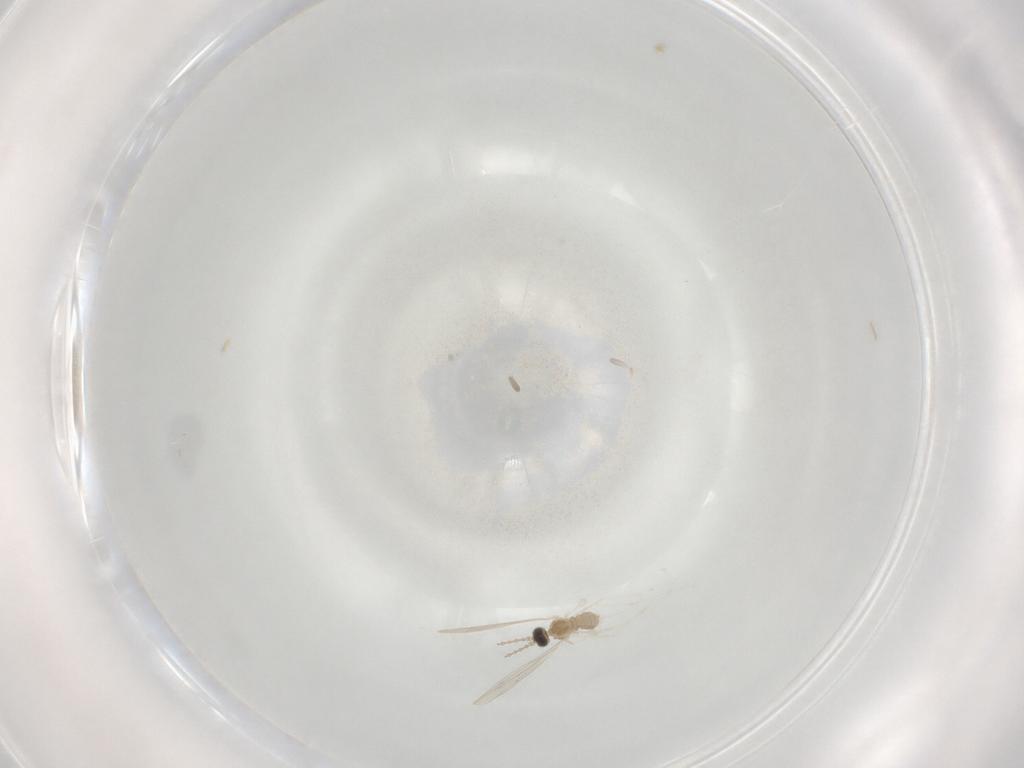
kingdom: Animalia
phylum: Arthropoda
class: Insecta
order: Diptera
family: Cecidomyiidae
